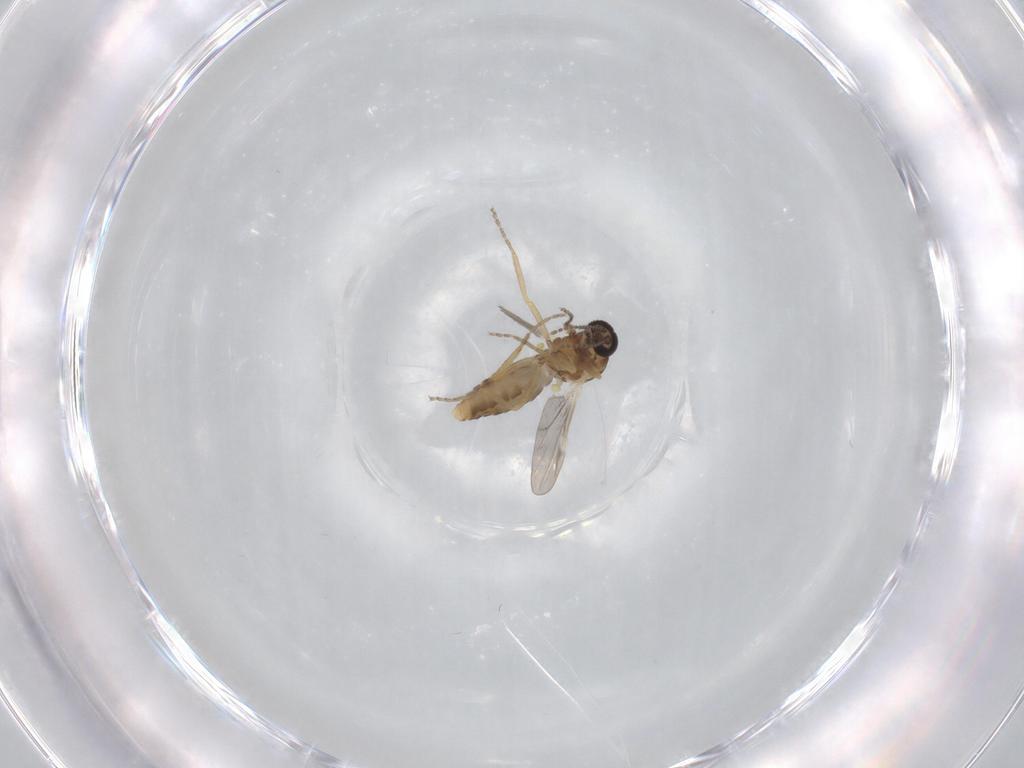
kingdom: Animalia
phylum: Arthropoda
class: Insecta
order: Diptera
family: Ceratopogonidae
